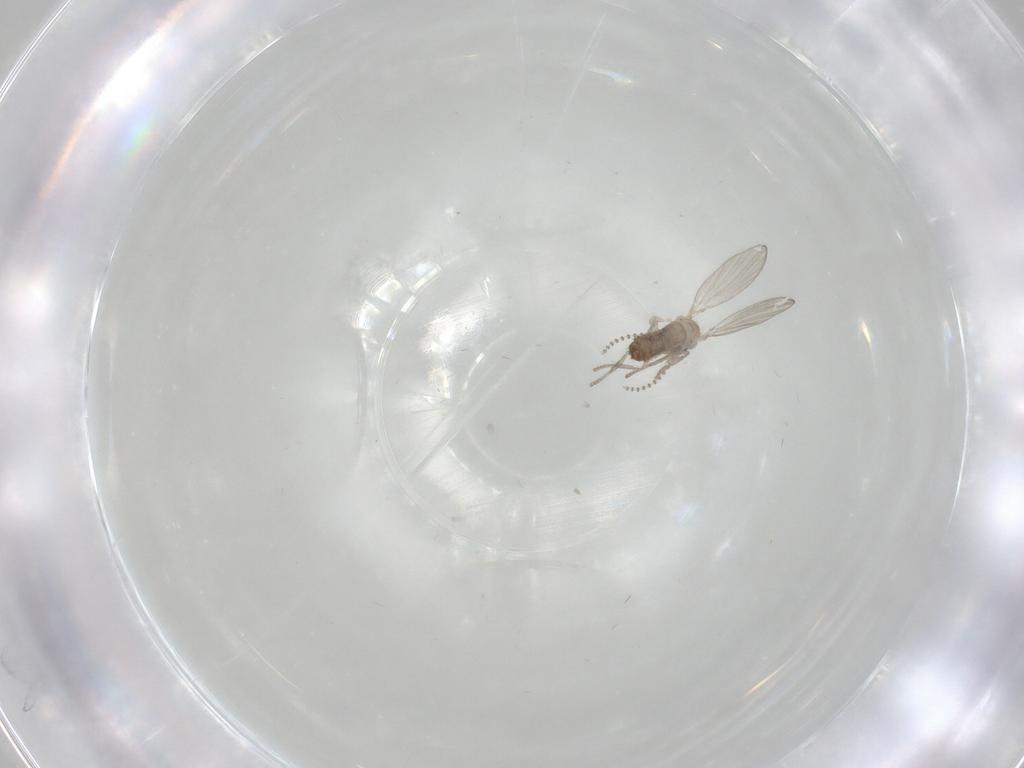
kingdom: Animalia
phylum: Arthropoda
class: Insecta
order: Diptera
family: Chironomidae
